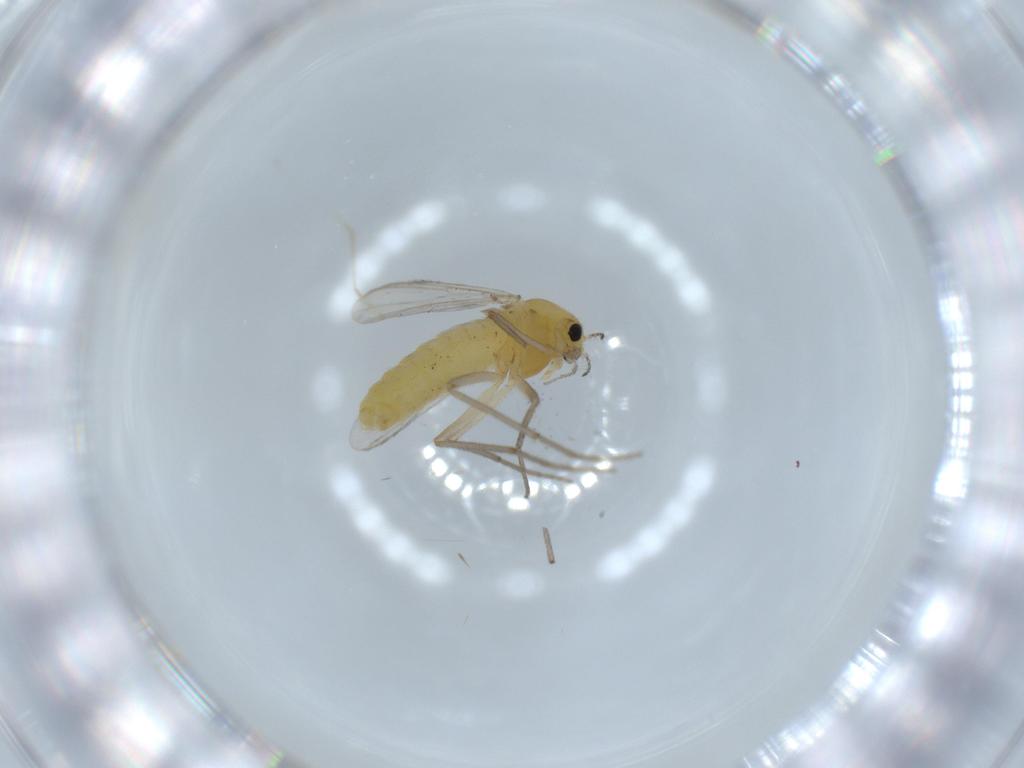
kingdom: Animalia
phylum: Arthropoda
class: Insecta
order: Diptera
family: Chironomidae
